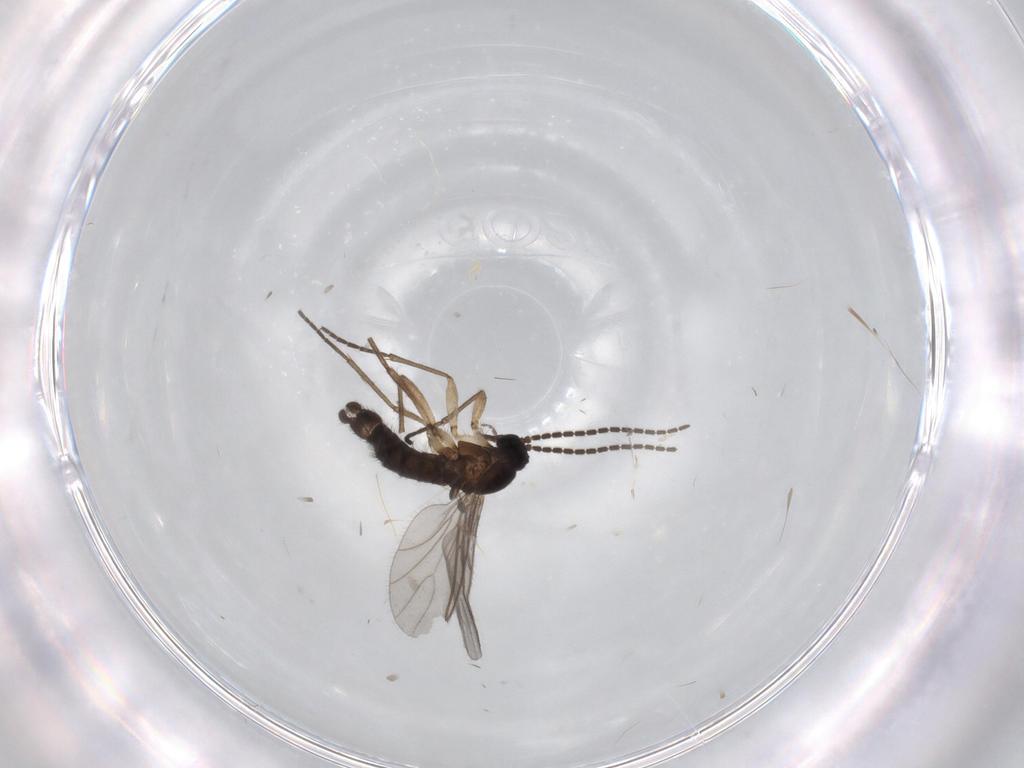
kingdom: Animalia
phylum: Arthropoda
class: Insecta
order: Diptera
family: Sciaridae
